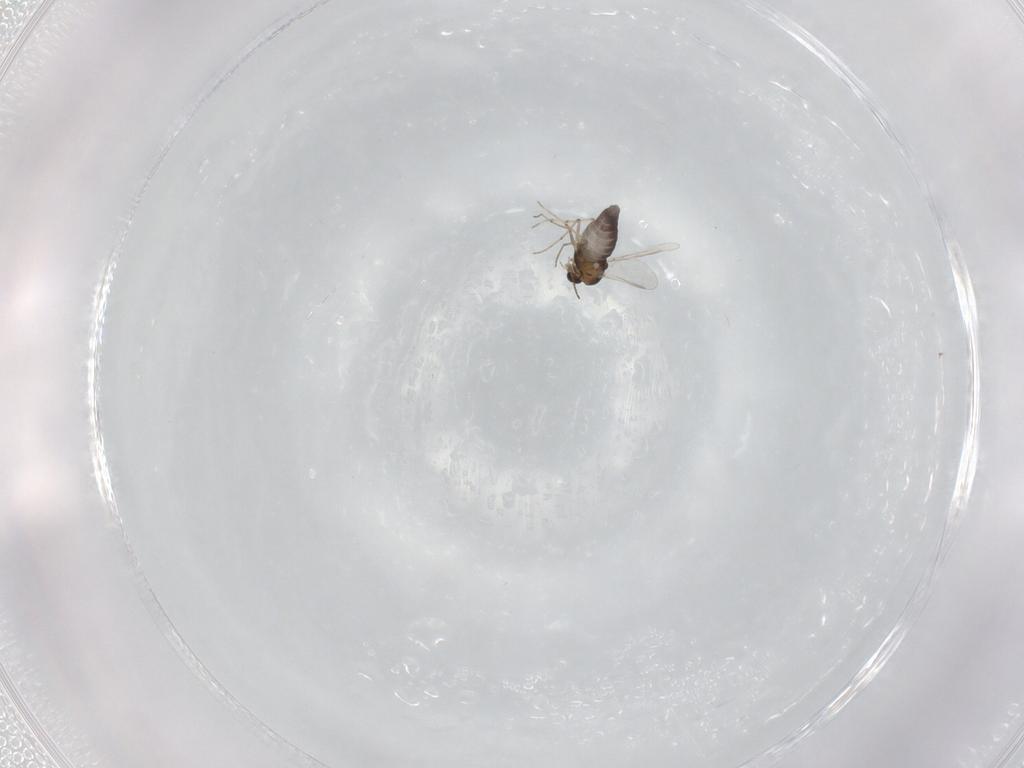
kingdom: Animalia
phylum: Arthropoda
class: Insecta
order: Diptera
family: Chironomidae
